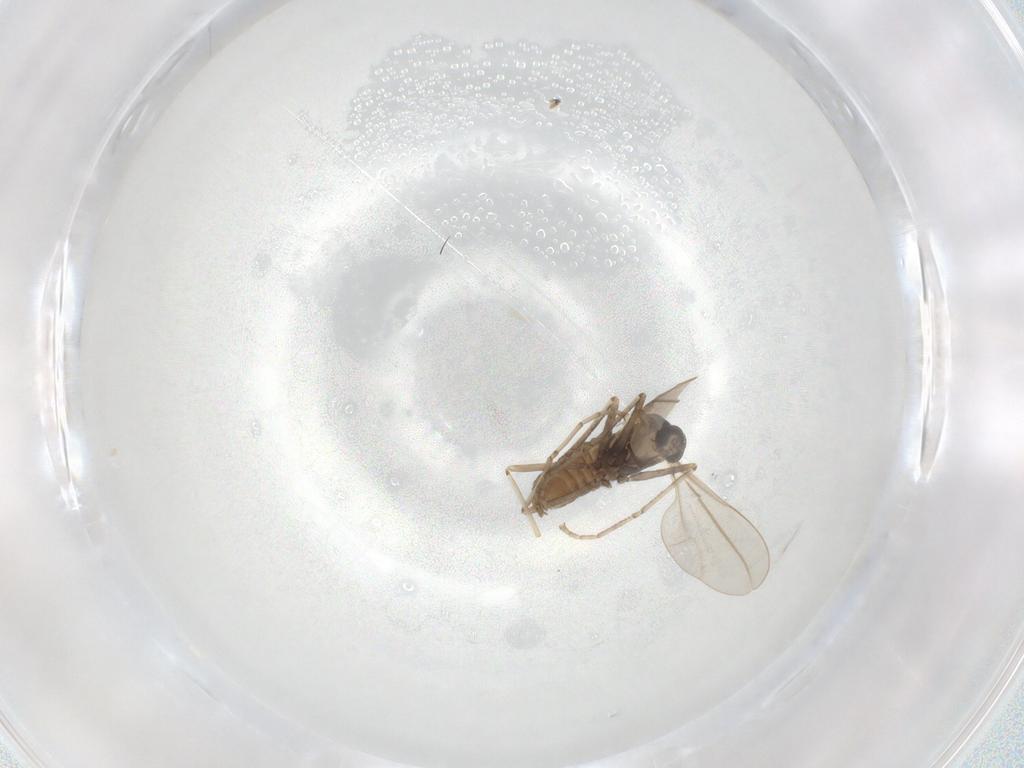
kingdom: Animalia
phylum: Arthropoda
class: Insecta
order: Diptera
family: Cecidomyiidae
